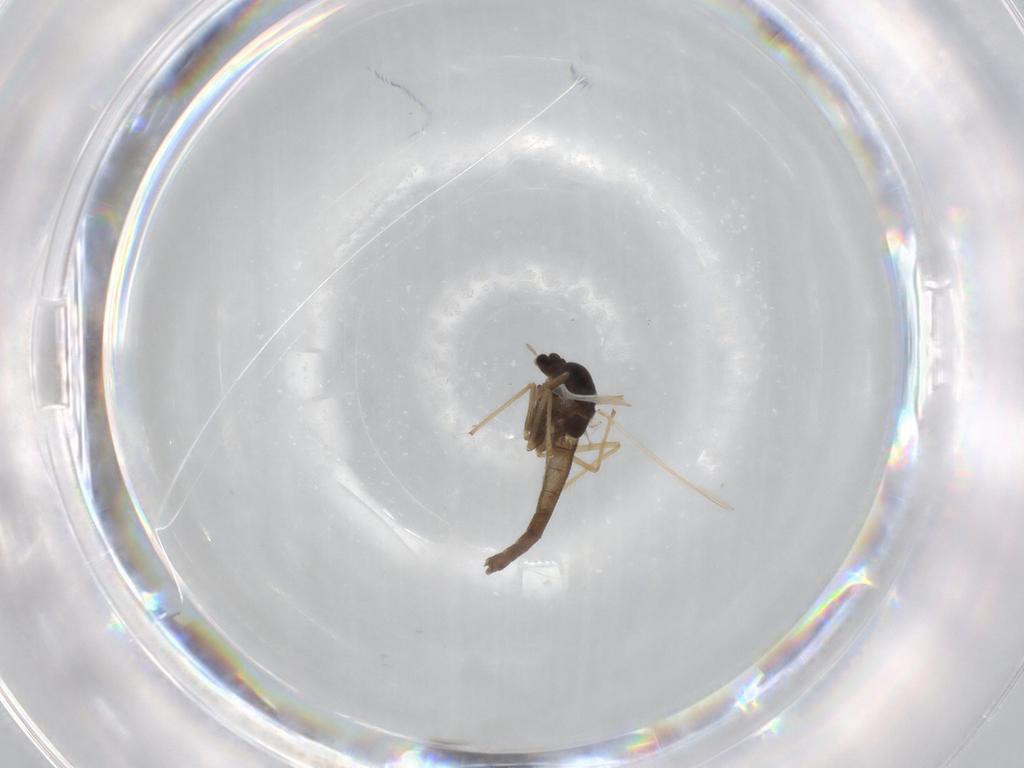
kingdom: Animalia
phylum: Arthropoda
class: Insecta
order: Diptera
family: Chironomidae
